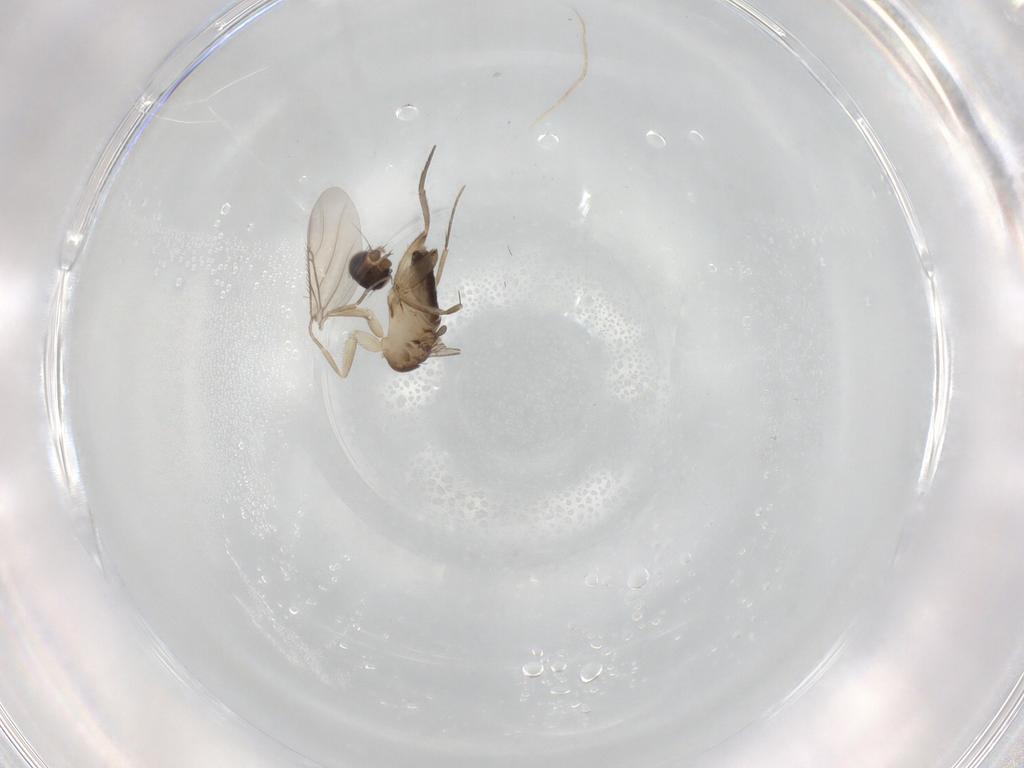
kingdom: Animalia
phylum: Arthropoda
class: Insecta
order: Diptera
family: Phoridae
